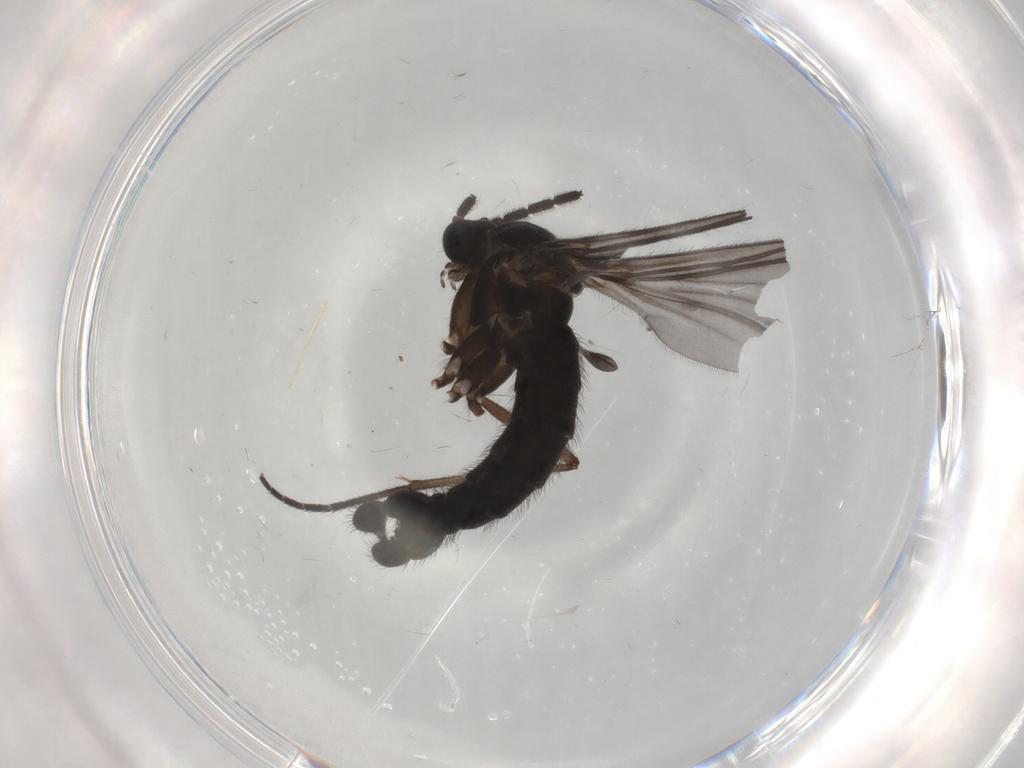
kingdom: Animalia
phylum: Arthropoda
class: Insecta
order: Diptera
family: Sciaridae
